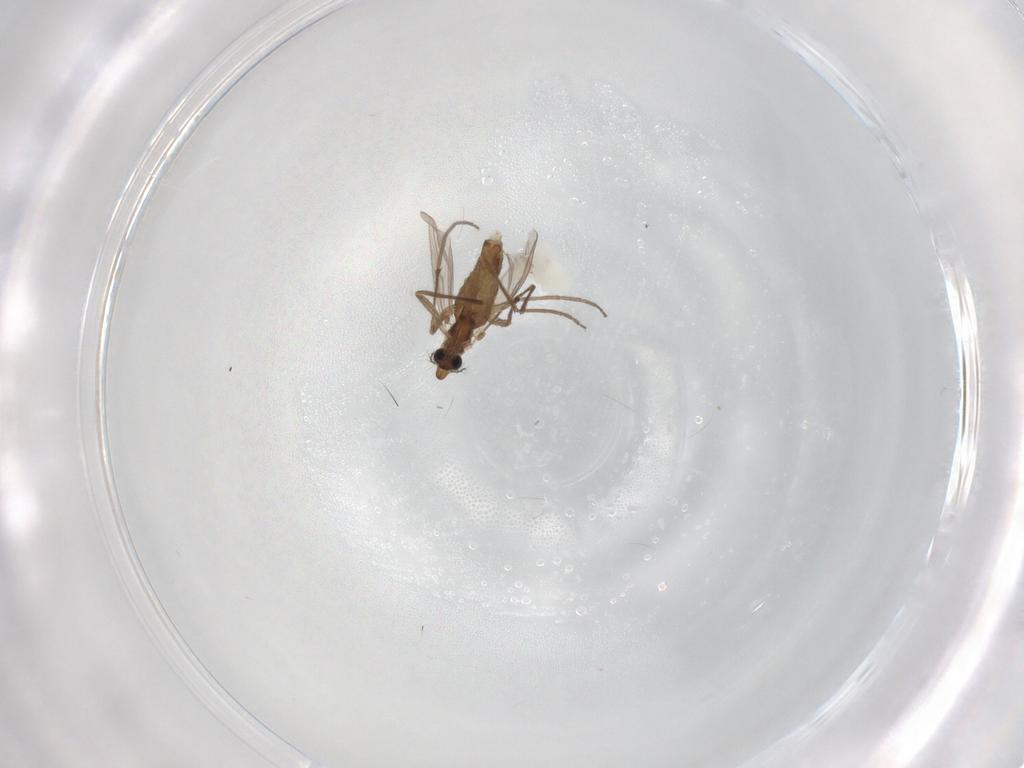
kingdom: Animalia
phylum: Arthropoda
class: Insecta
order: Diptera
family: Chironomidae
